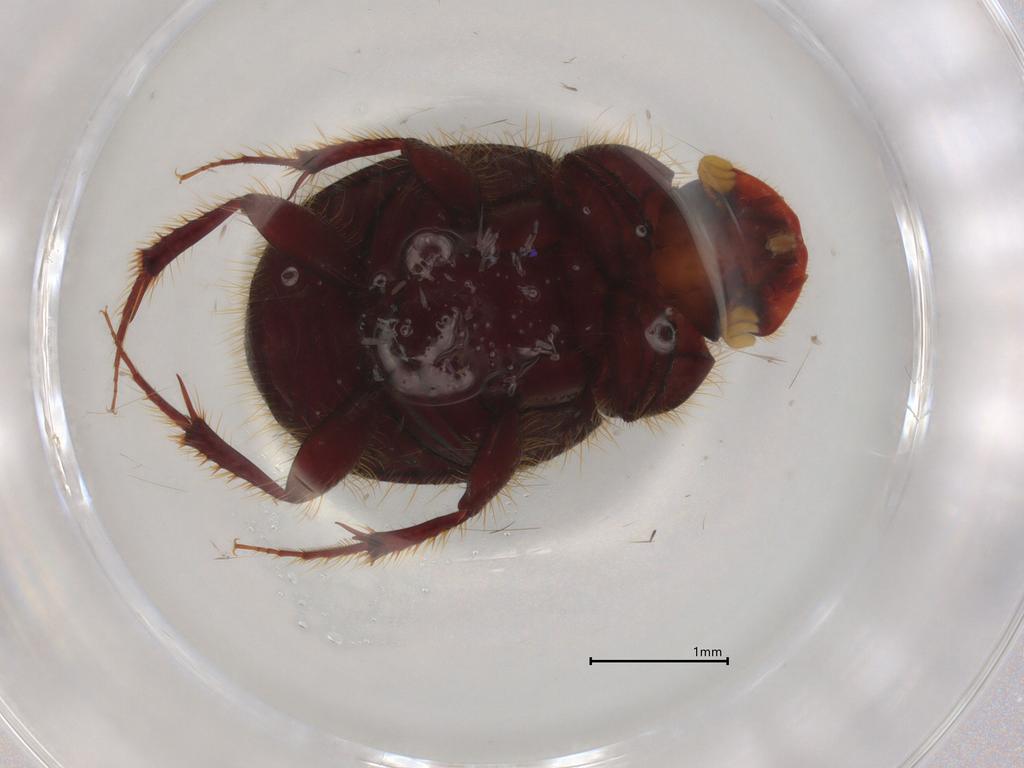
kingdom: Animalia
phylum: Arthropoda
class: Insecta
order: Coleoptera
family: Scarabaeidae
